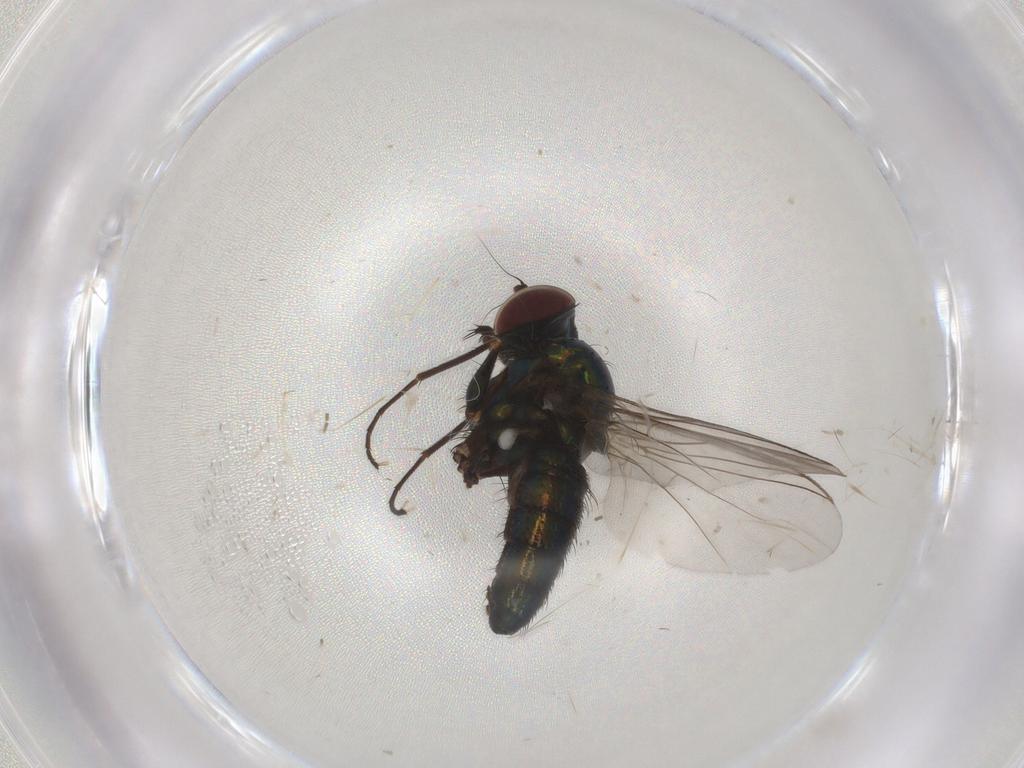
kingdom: Animalia
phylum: Arthropoda
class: Insecta
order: Diptera
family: Dolichopodidae
